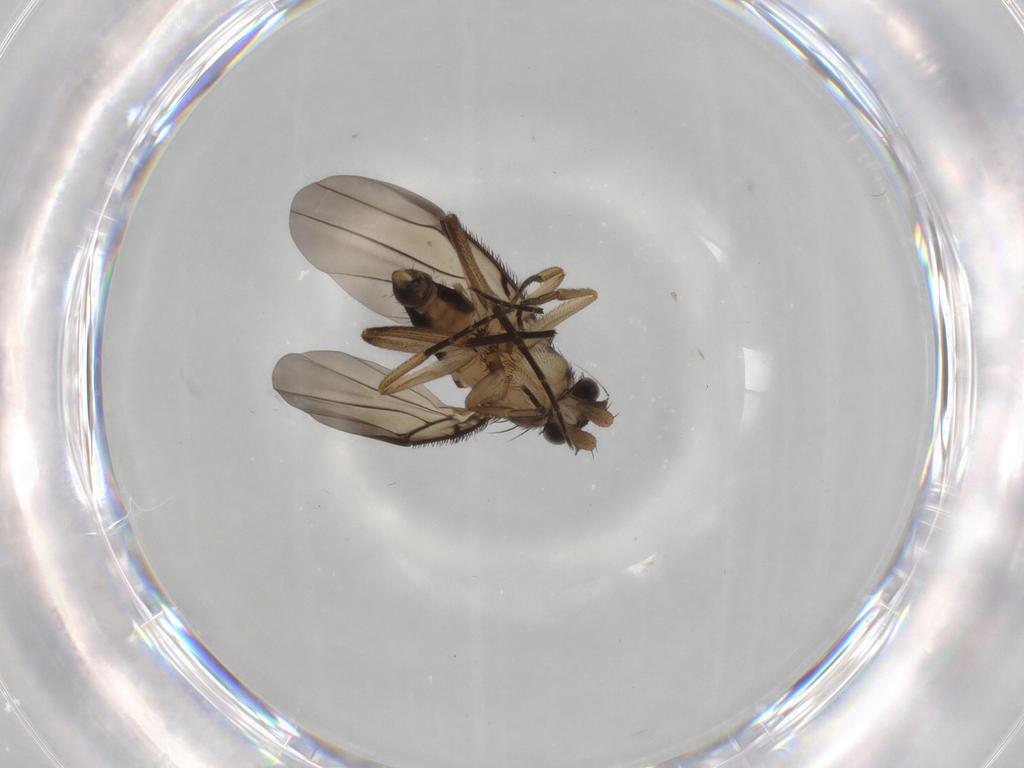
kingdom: Animalia
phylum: Arthropoda
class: Insecta
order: Diptera
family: Phoridae
